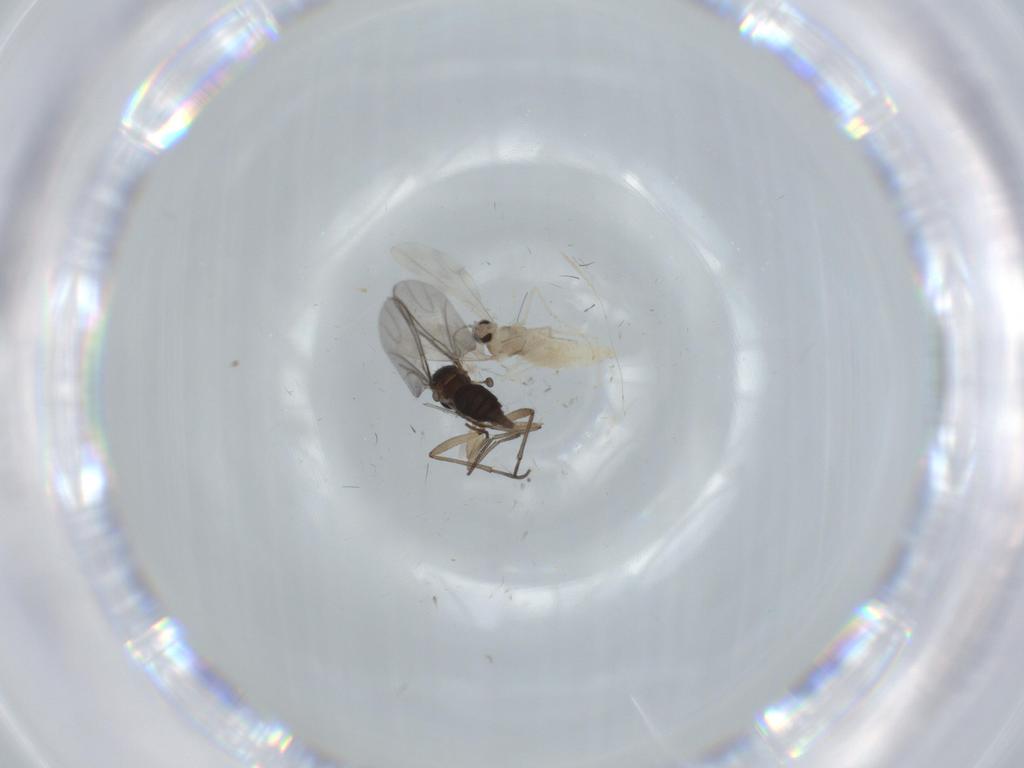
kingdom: Animalia
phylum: Arthropoda
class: Insecta
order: Diptera
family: Sciaridae
